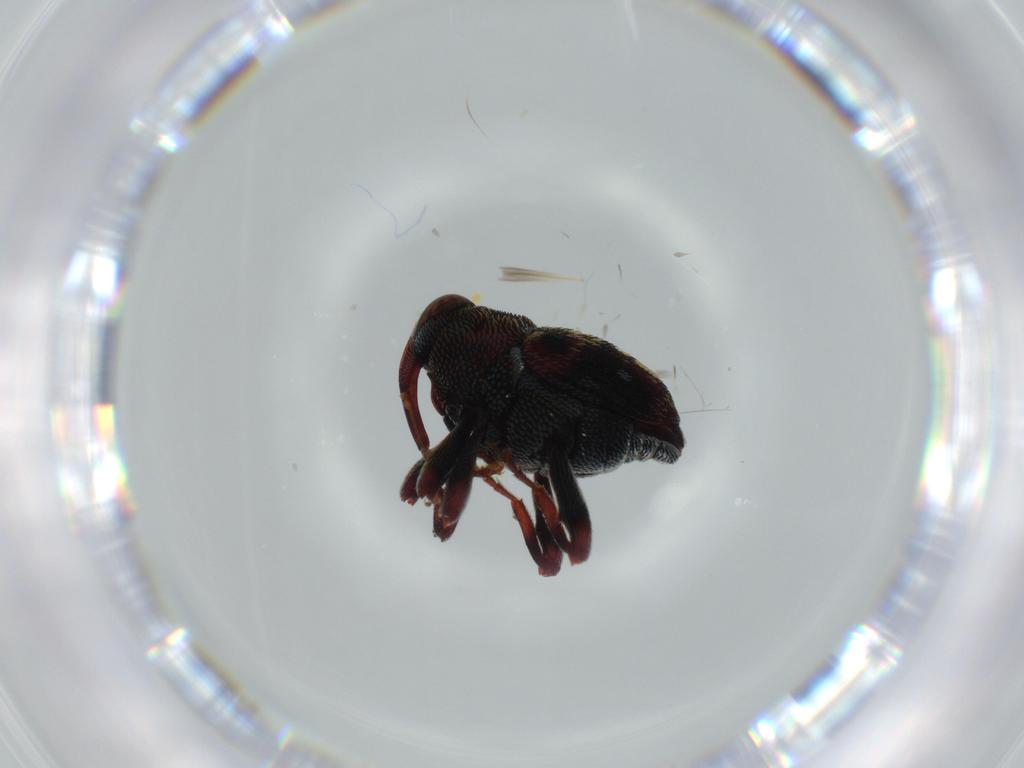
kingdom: Animalia
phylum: Arthropoda
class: Insecta
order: Coleoptera
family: Curculionidae
